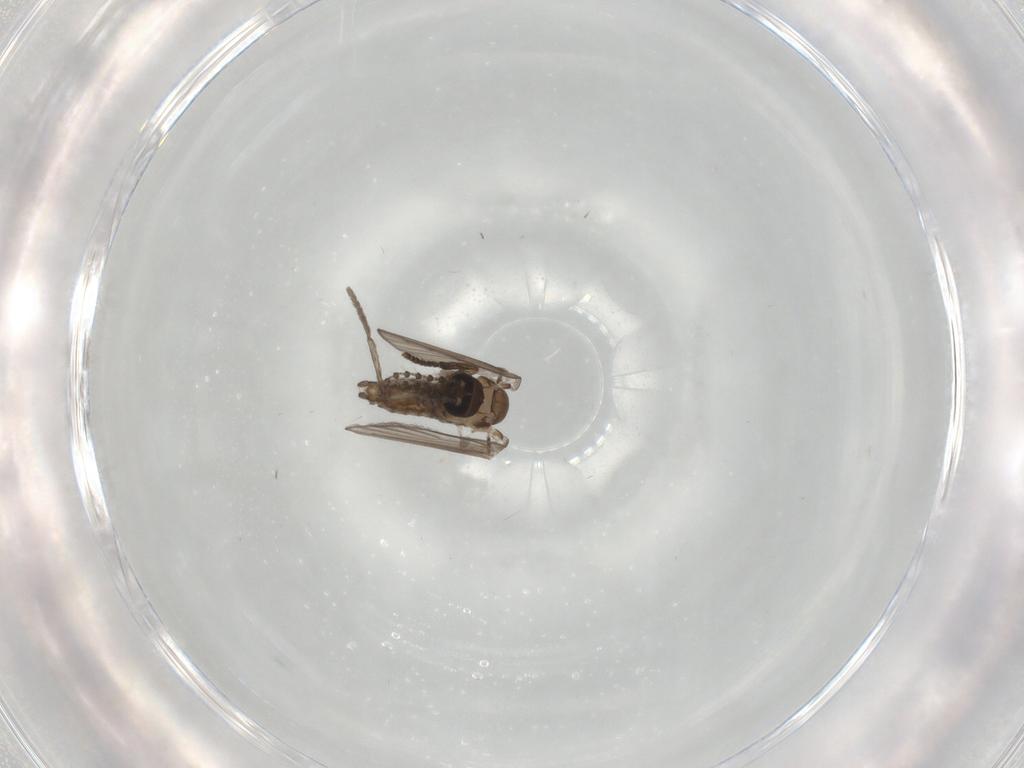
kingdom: Animalia
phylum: Arthropoda
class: Insecta
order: Diptera
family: Psychodidae
